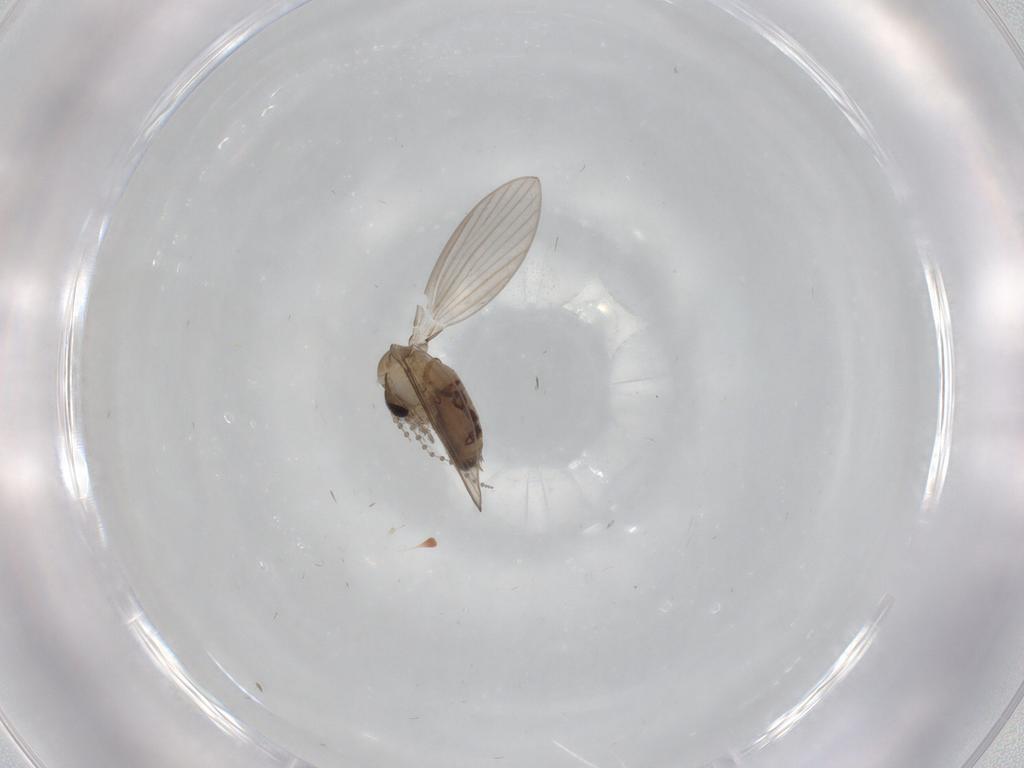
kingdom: Animalia
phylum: Arthropoda
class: Insecta
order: Diptera
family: Psychodidae
